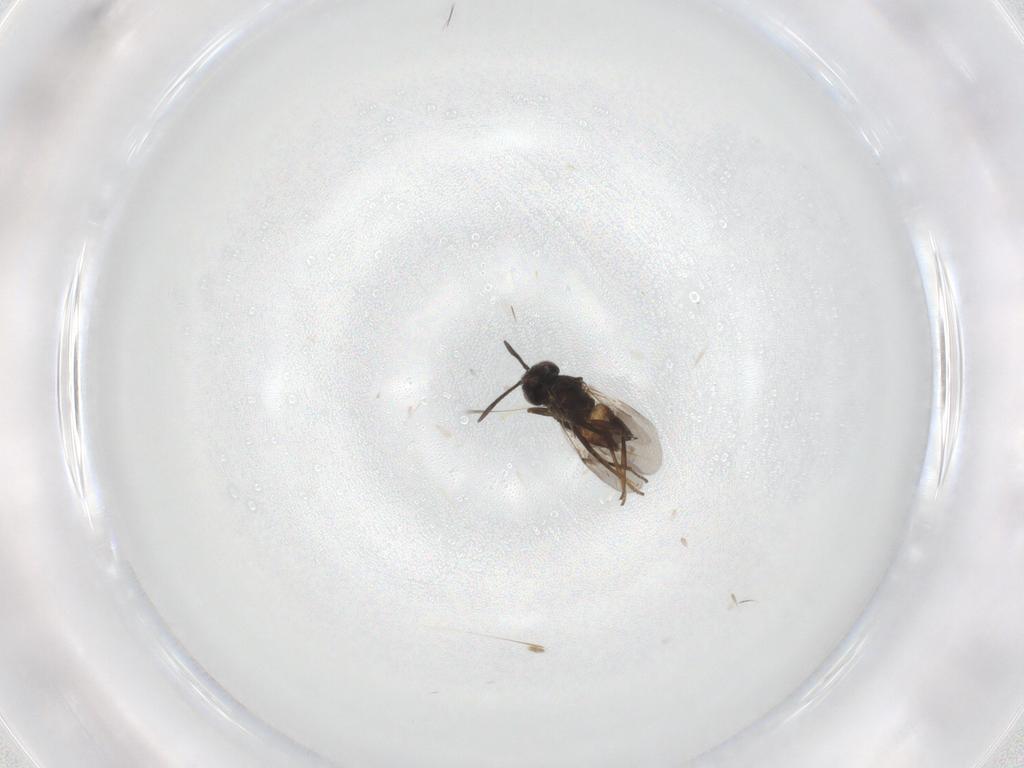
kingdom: Animalia
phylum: Arthropoda
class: Insecta
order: Hymenoptera
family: Encyrtidae
